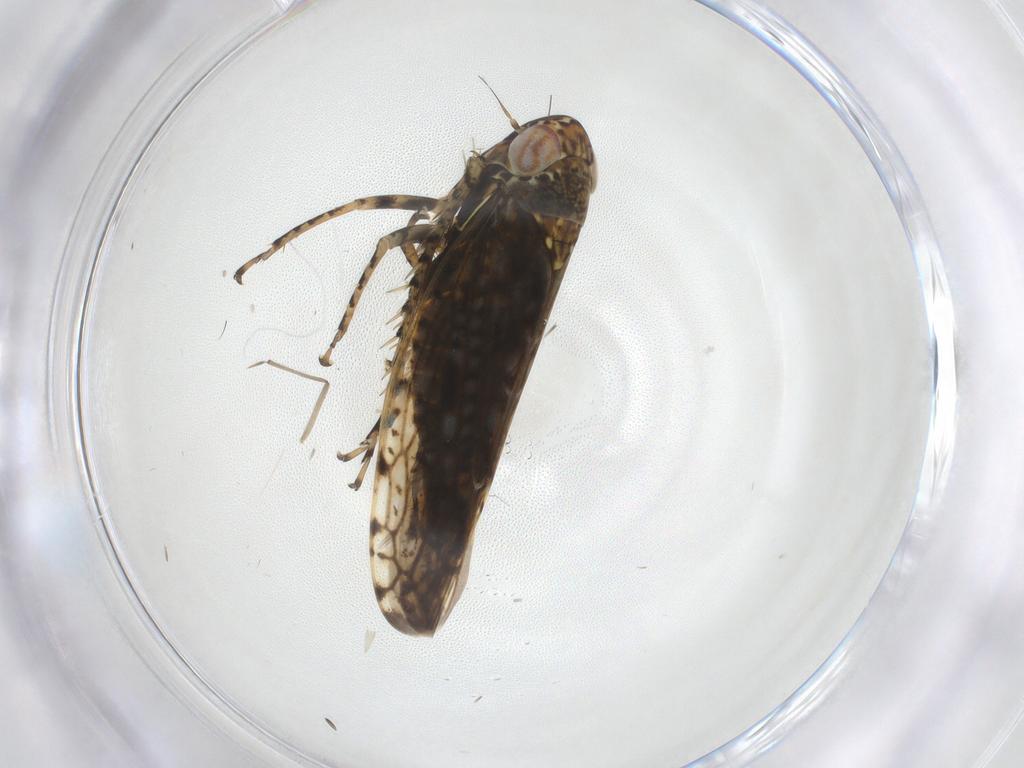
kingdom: Animalia
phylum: Arthropoda
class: Insecta
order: Hemiptera
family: Cicadellidae
